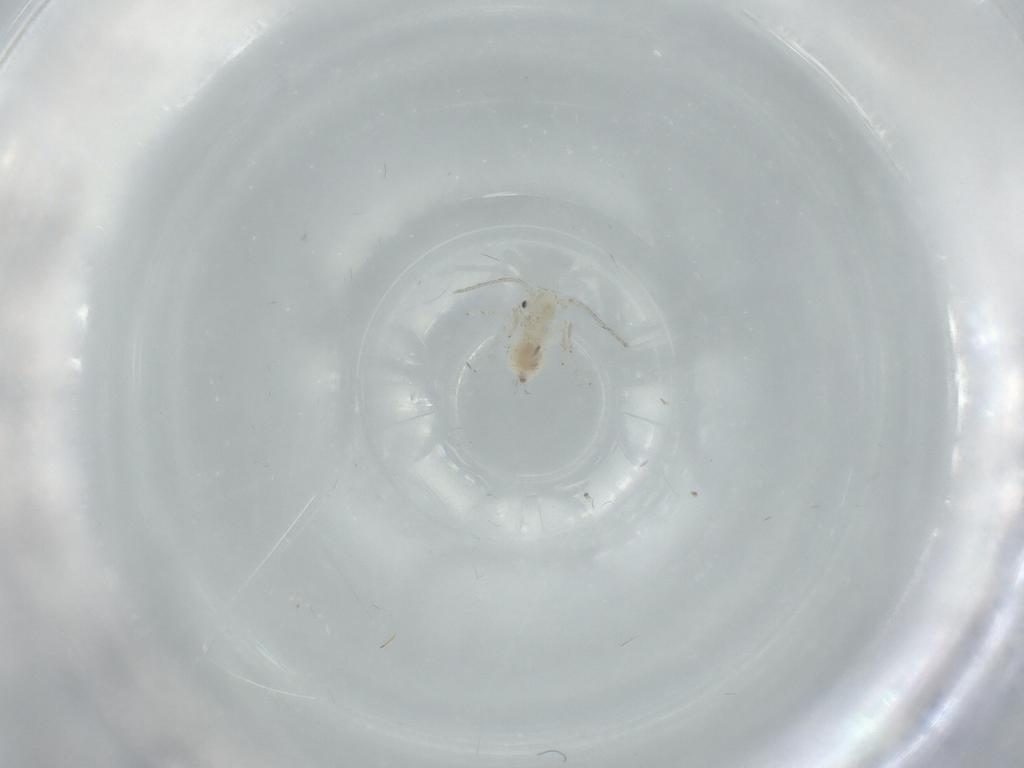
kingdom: Animalia
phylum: Arthropoda
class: Insecta
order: Psocodea
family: Caeciliusidae
